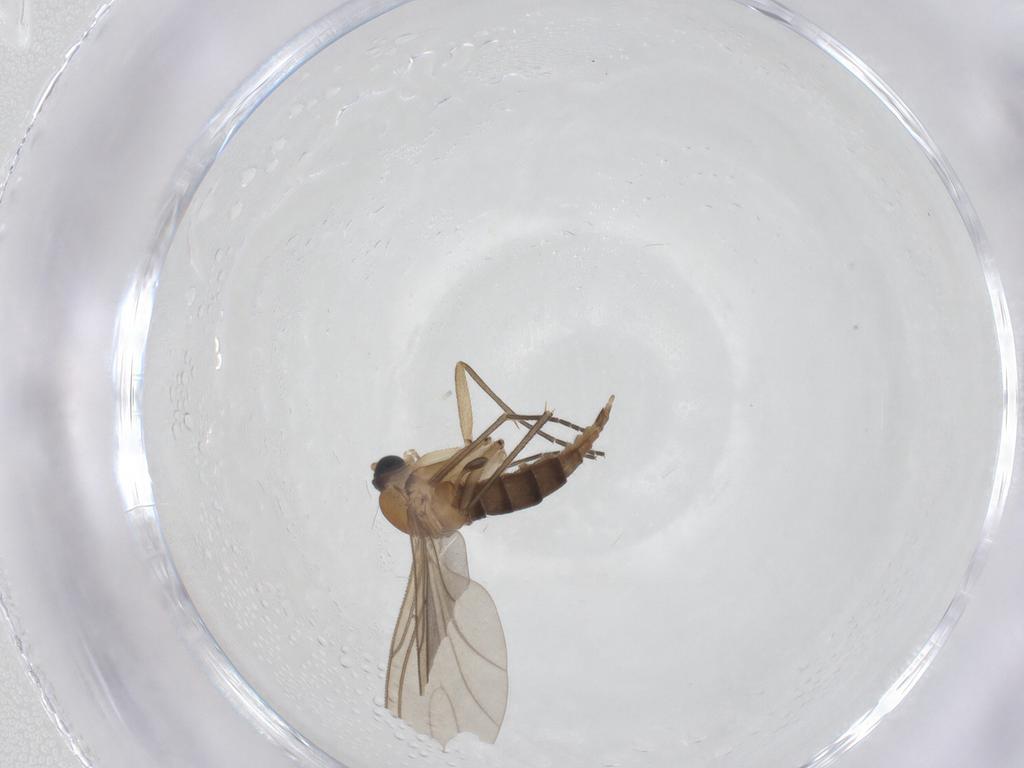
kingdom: Animalia
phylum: Arthropoda
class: Insecta
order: Diptera
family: Sciaridae
